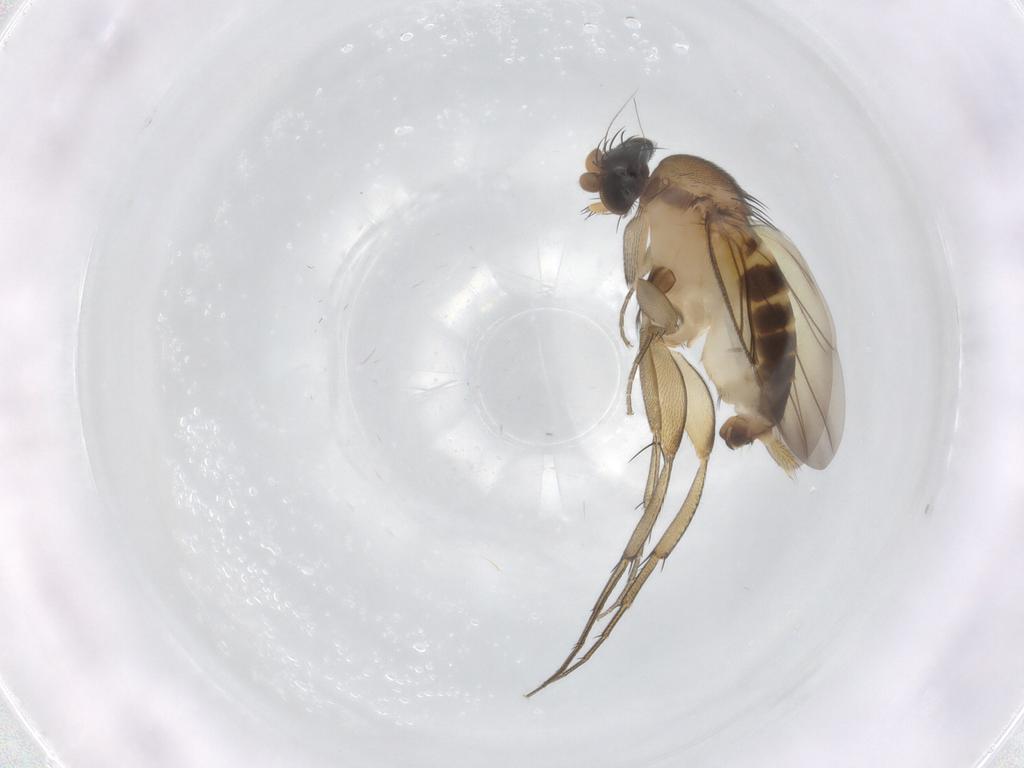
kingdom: Animalia
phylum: Arthropoda
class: Insecta
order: Diptera
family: Phoridae
